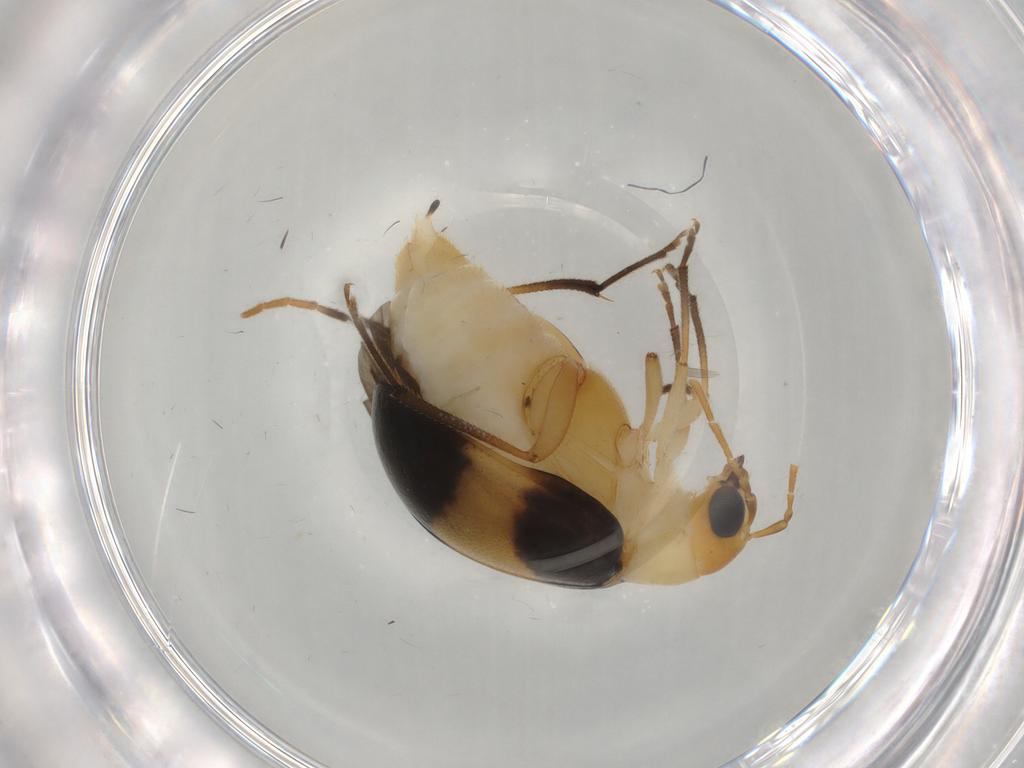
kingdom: Animalia
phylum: Arthropoda
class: Insecta
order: Coleoptera
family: Chrysomelidae
